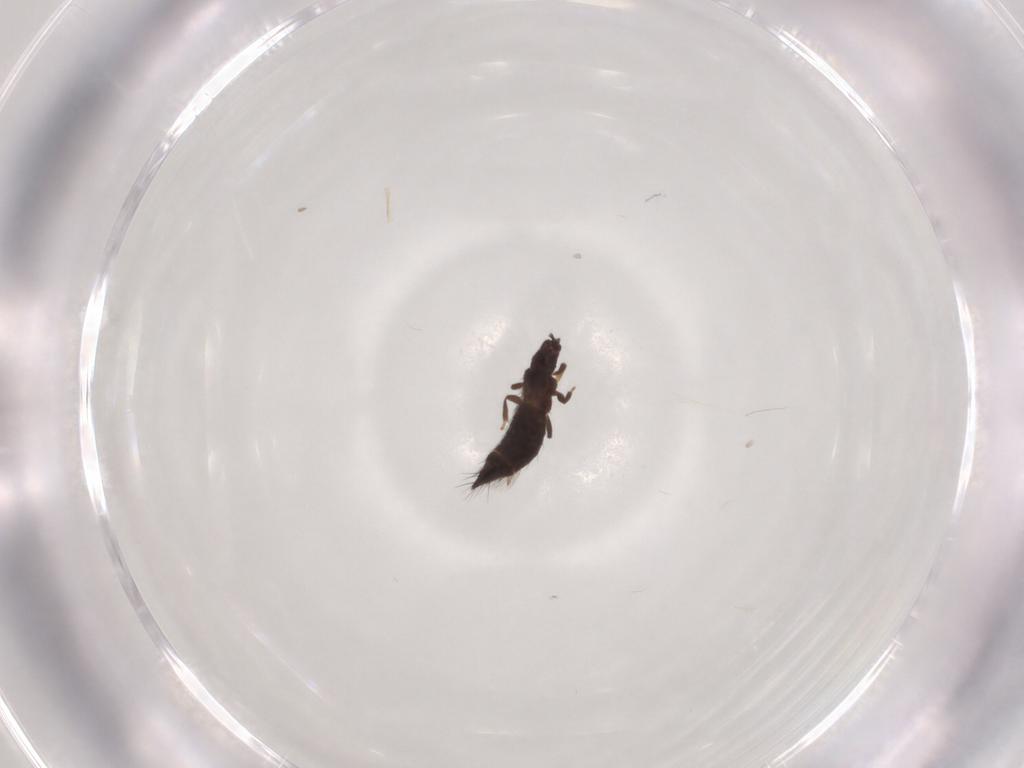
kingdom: Animalia
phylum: Arthropoda
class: Insecta
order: Thysanoptera
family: Thripidae
